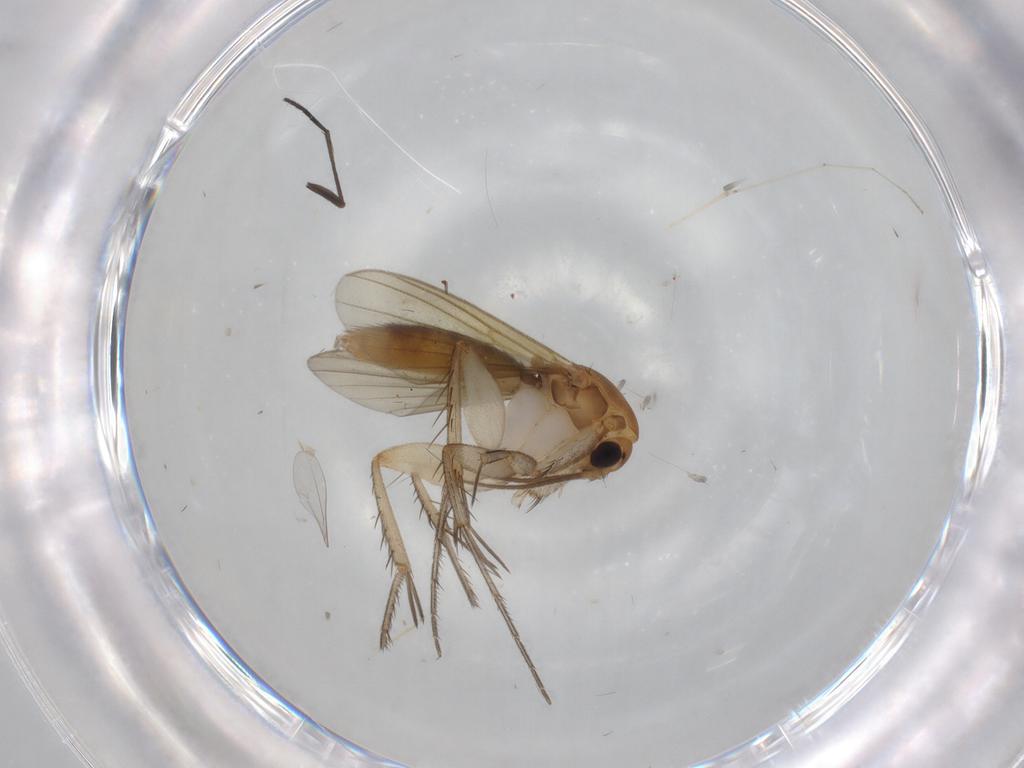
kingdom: Animalia
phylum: Arthropoda
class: Insecta
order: Diptera
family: Mycetophilidae
